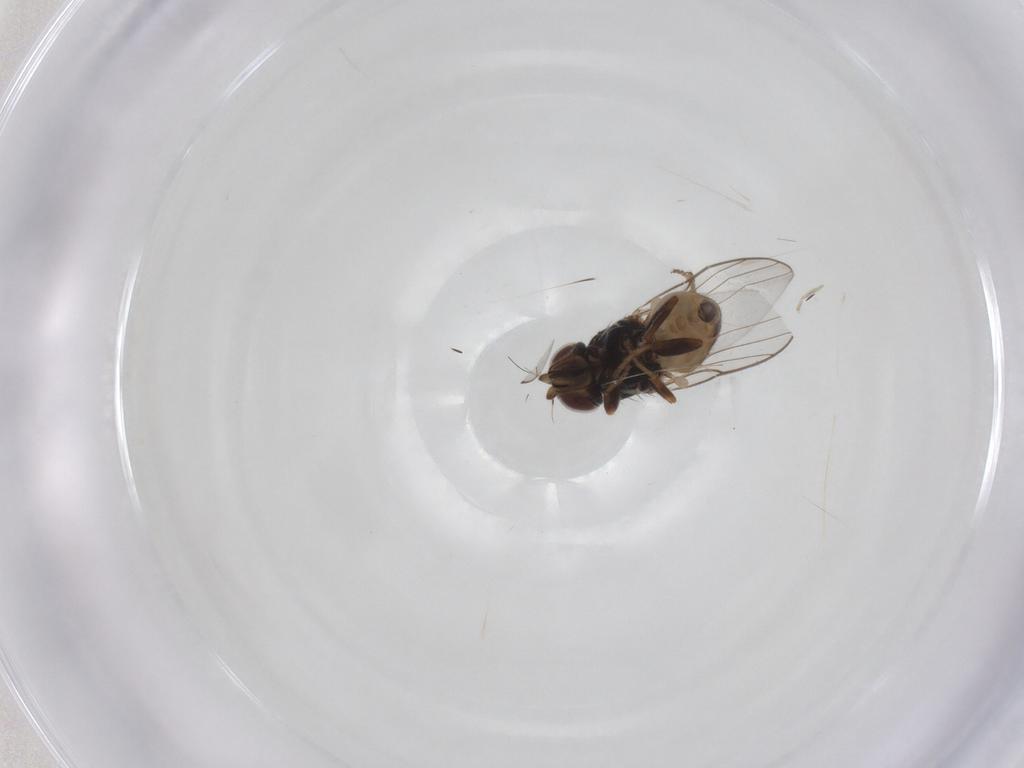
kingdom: Animalia
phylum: Arthropoda
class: Insecta
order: Diptera
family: Chloropidae
